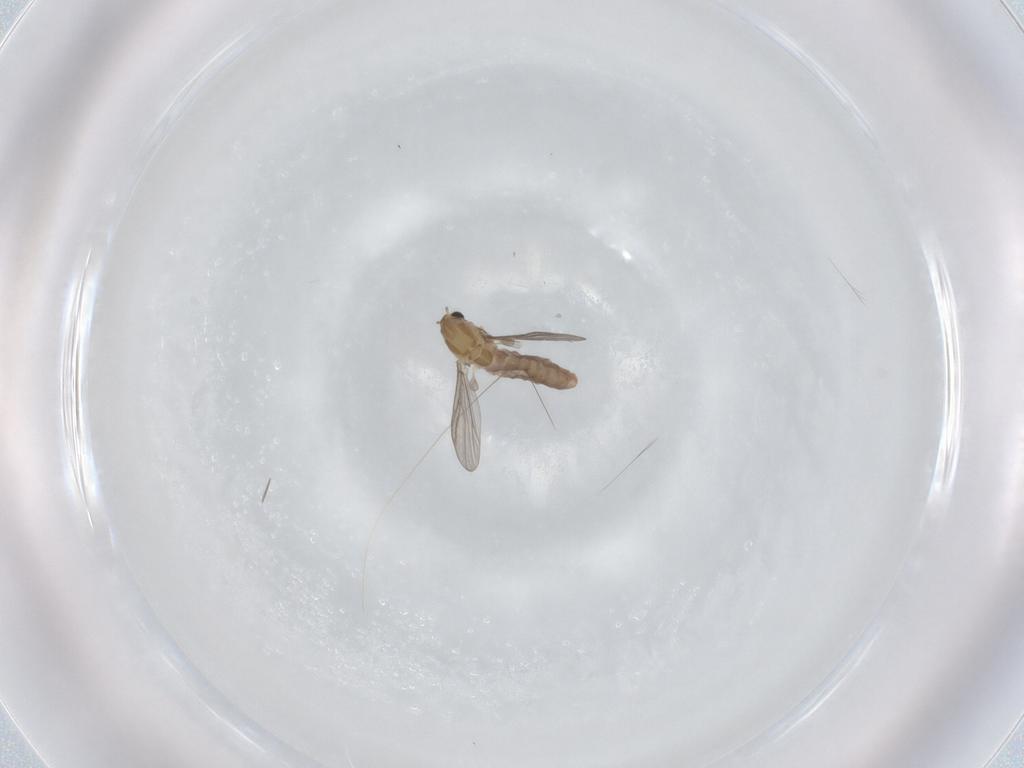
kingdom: Animalia
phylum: Arthropoda
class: Insecta
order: Diptera
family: Chironomidae
